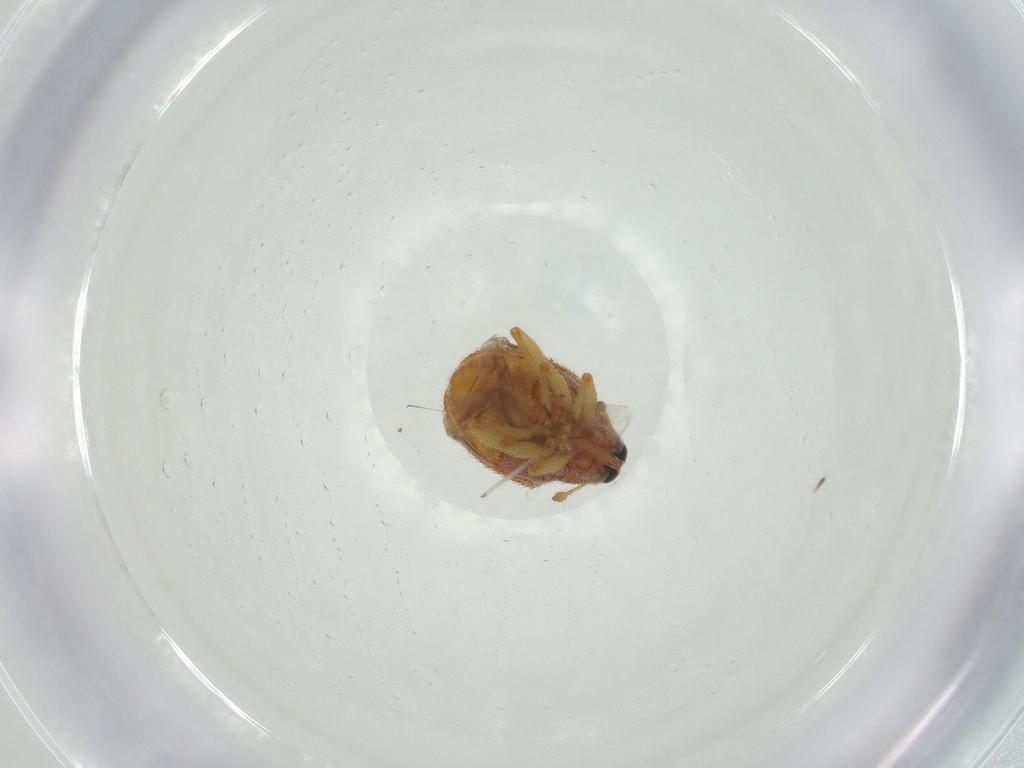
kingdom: Animalia
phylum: Arthropoda
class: Insecta
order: Coleoptera
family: Curculionidae
